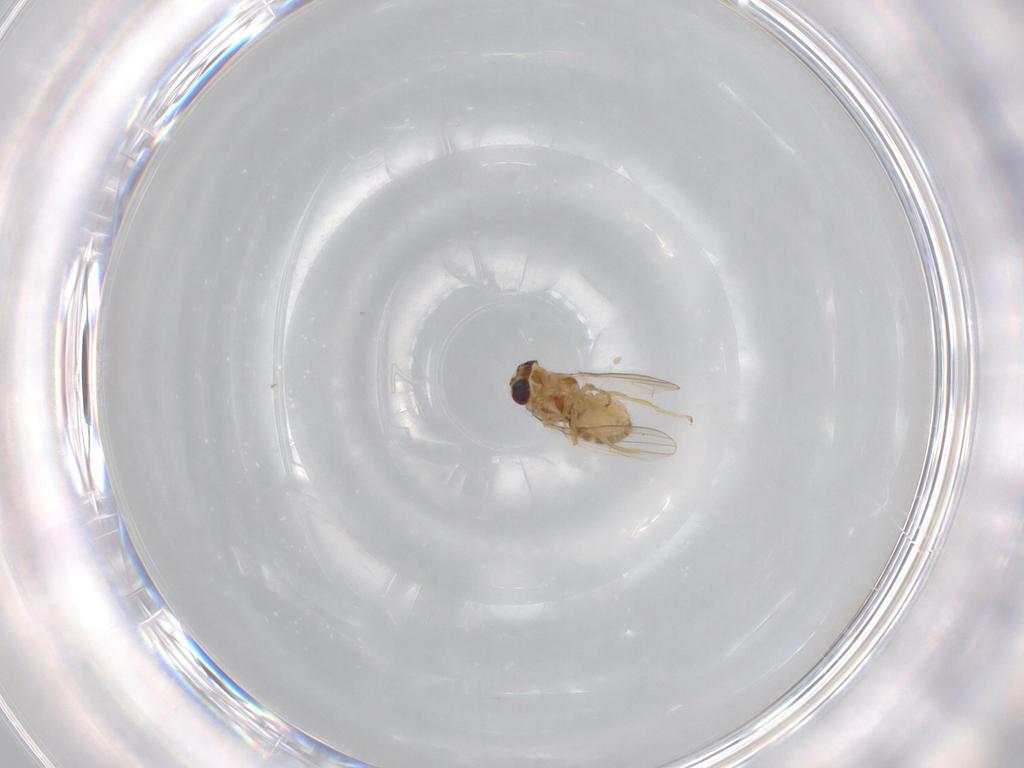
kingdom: Animalia
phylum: Arthropoda
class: Insecta
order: Diptera
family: Chyromyidae
